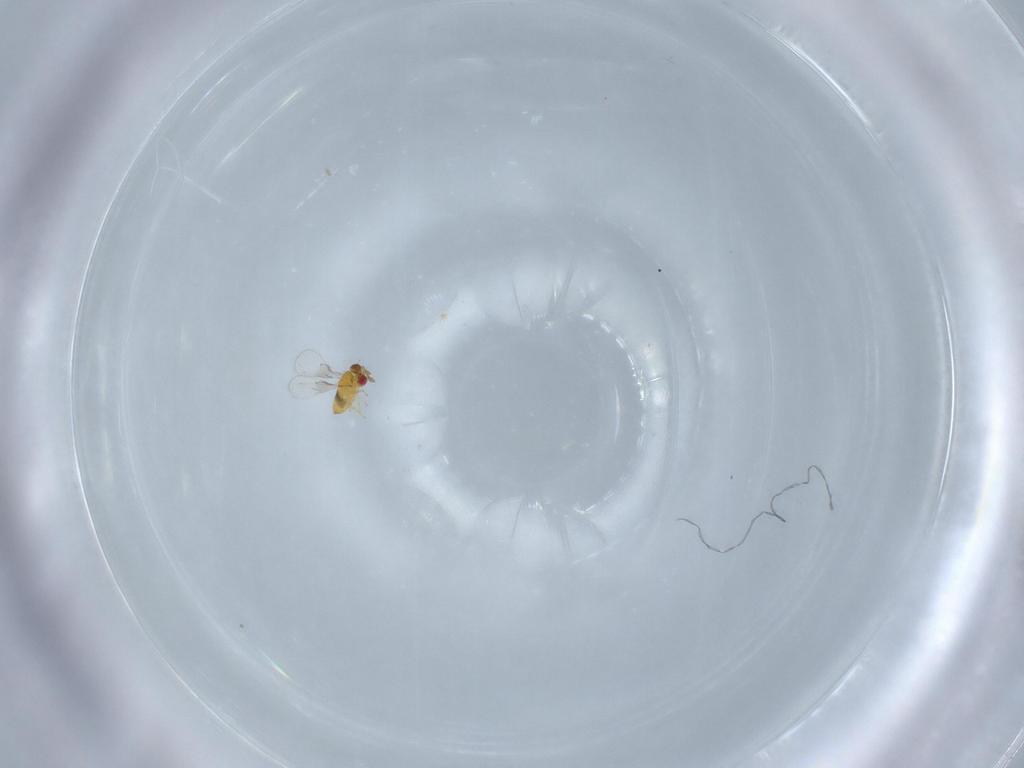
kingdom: Animalia
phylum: Arthropoda
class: Insecta
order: Hymenoptera
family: Trichogrammatidae
